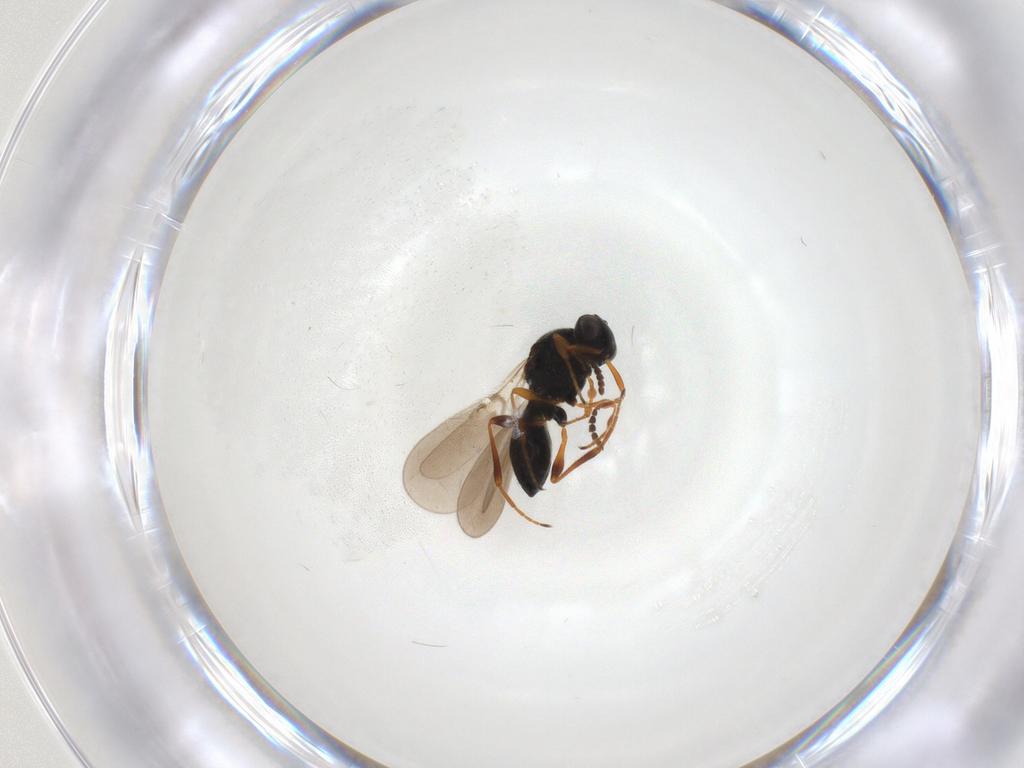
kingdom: Animalia
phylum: Arthropoda
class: Insecta
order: Hymenoptera
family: Platygastridae
